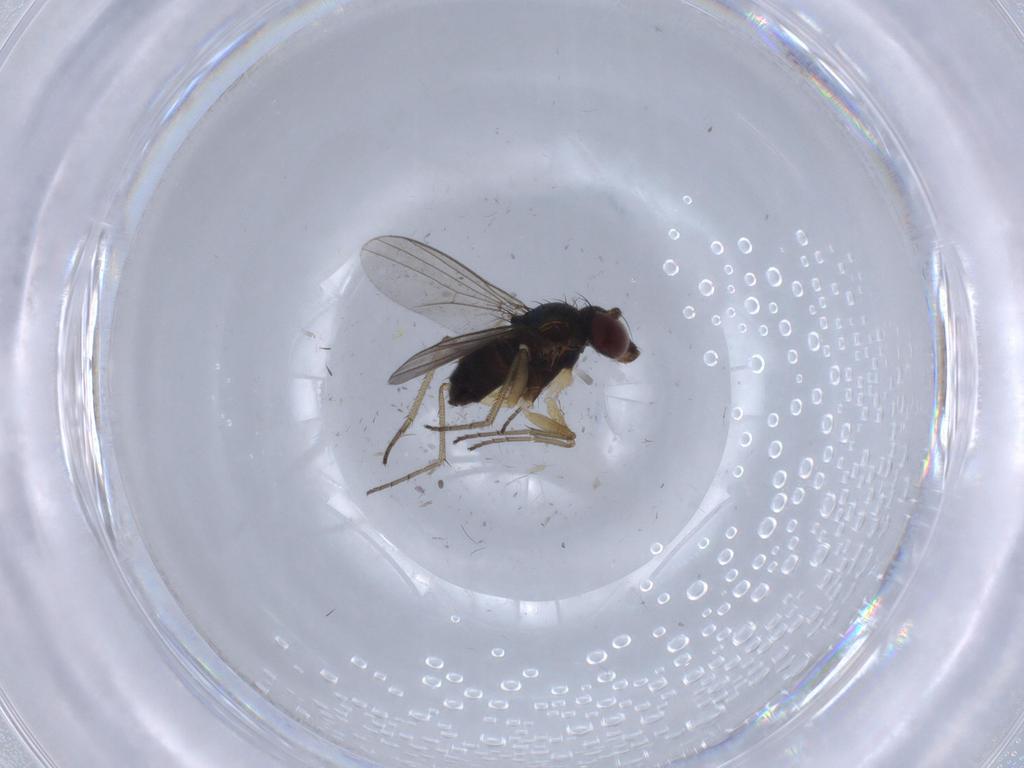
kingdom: Animalia
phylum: Arthropoda
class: Insecta
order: Diptera
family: Dolichopodidae
